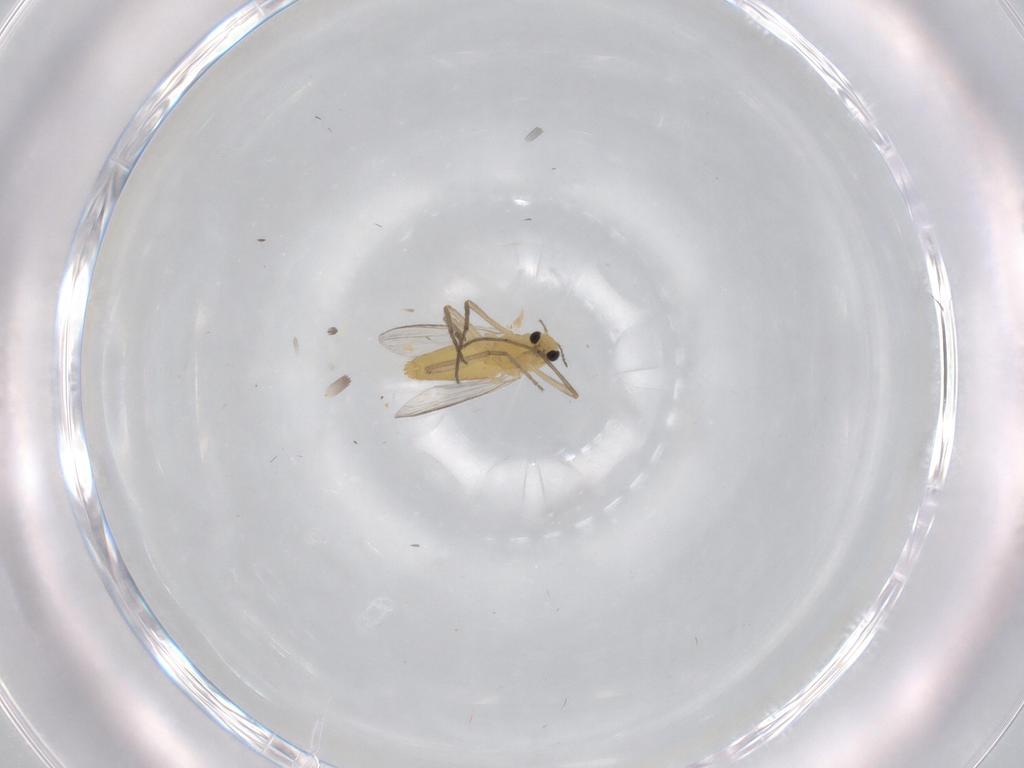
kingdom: Animalia
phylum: Arthropoda
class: Insecta
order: Diptera
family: Chironomidae
